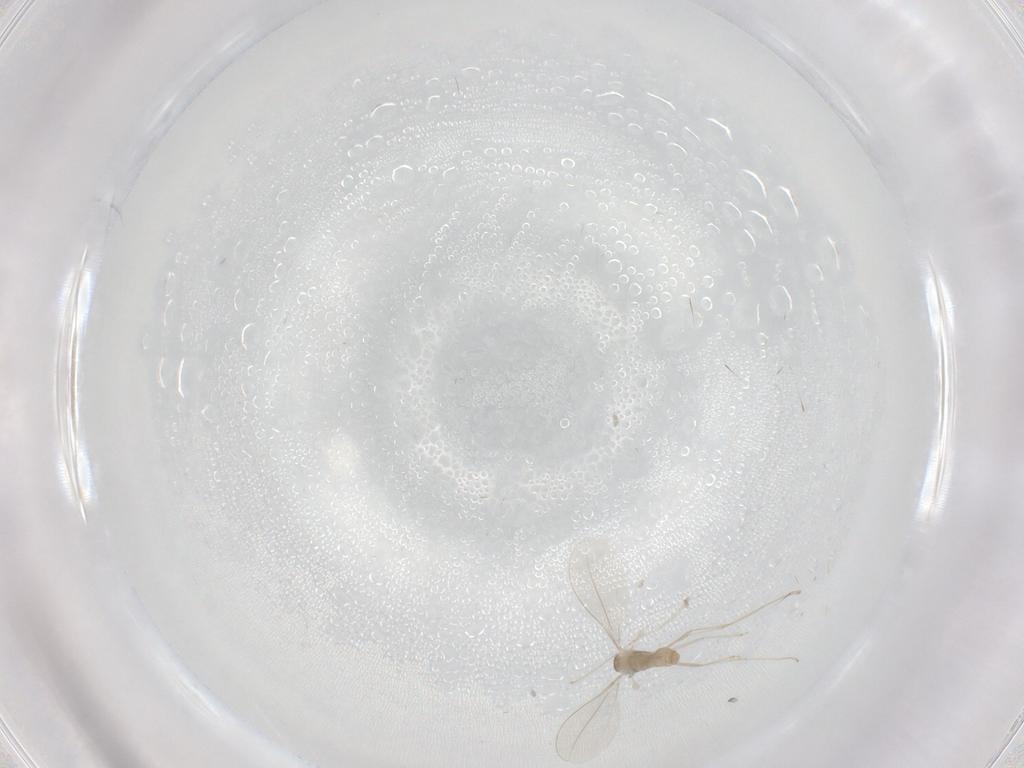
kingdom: Animalia
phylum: Arthropoda
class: Insecta
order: Diptera
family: Cecidomyiidae
